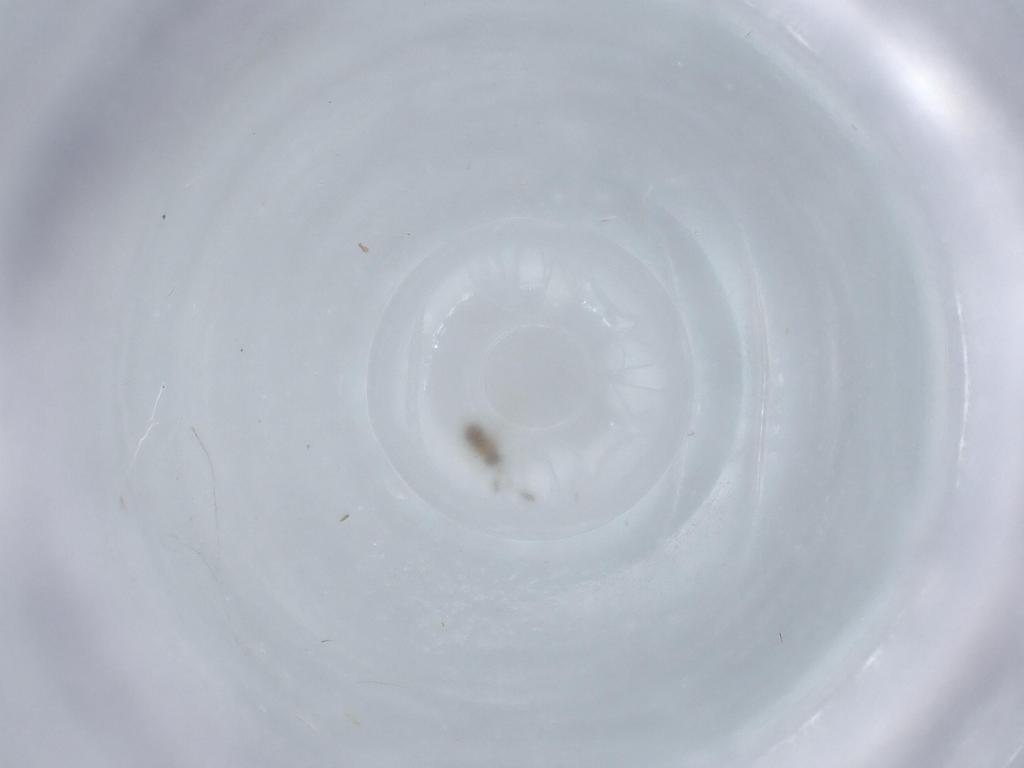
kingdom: Animalia
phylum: Arthropoda
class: Insecta
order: Hymenoptera
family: Mymaridae
